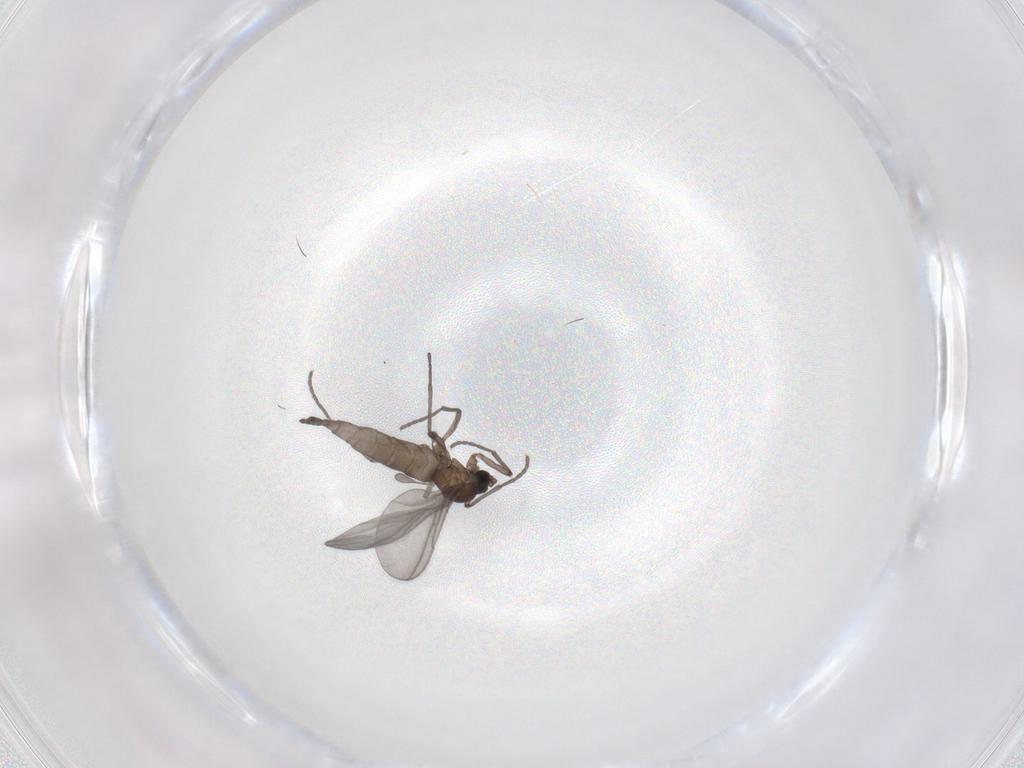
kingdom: Animalia
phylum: Arthropoda
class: Insecta
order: Diptera
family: Sciaridae
